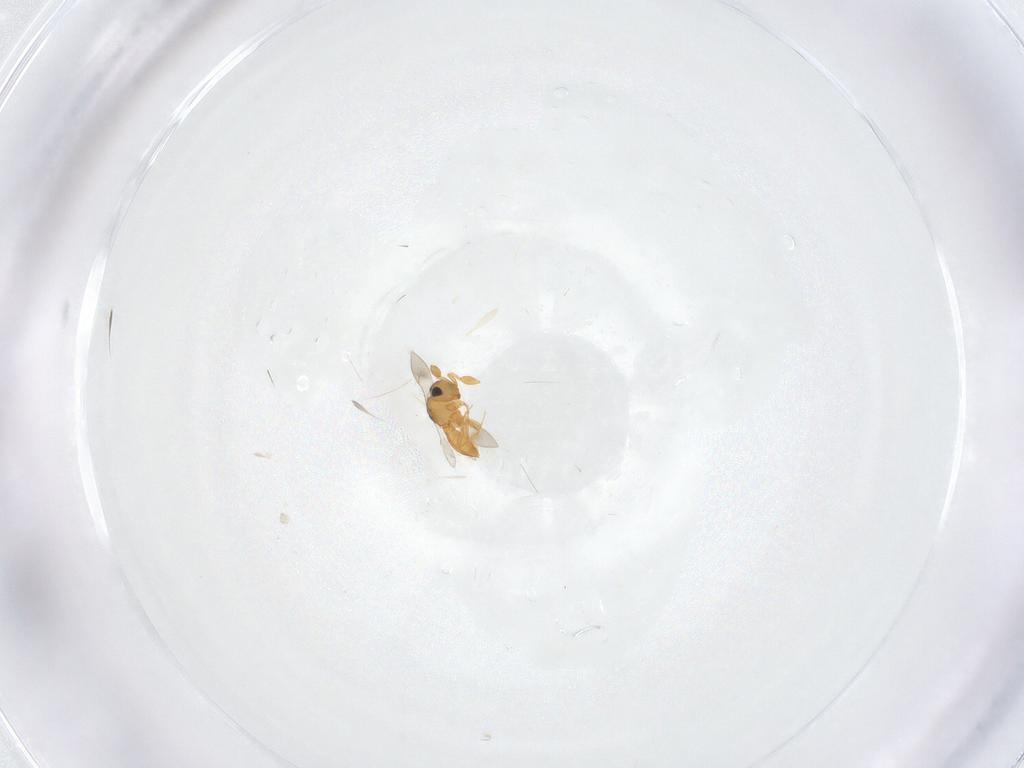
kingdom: Animalia
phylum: Arthropoda
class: Insecta
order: Hymenoptera
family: Scelionidae
